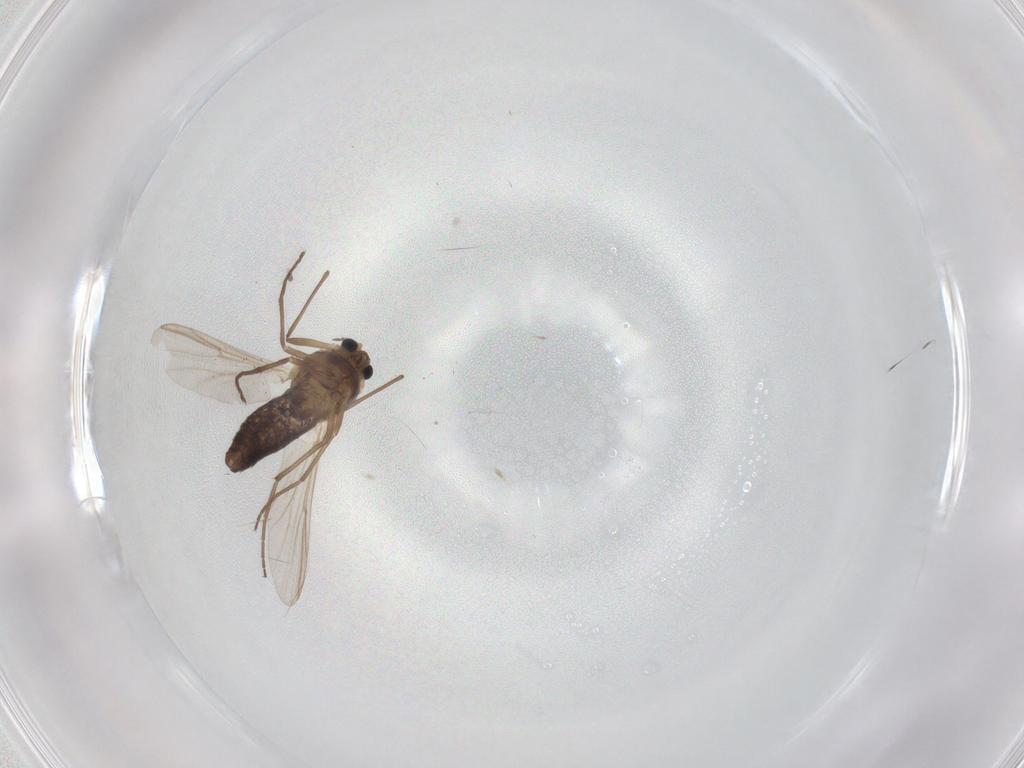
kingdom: Animalia
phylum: Arthropoda
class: Insecta
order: Diptera
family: Chironomidae
